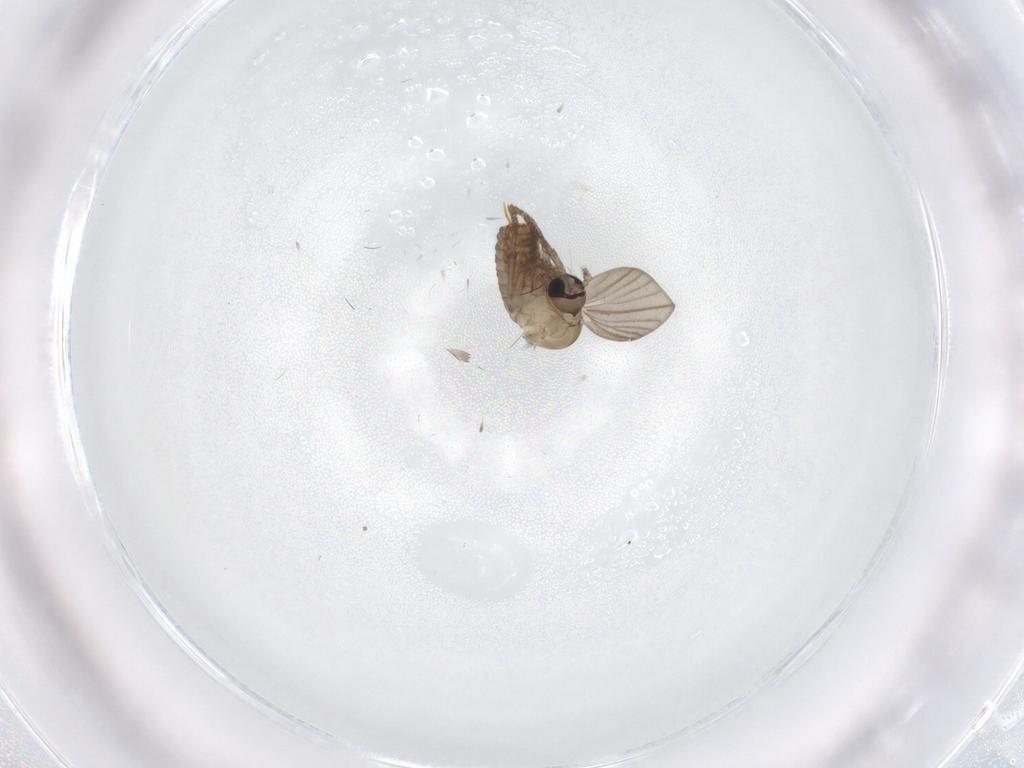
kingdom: Animalia
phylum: Arthropoda
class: Insecta
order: Diptera
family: Psychodidae
